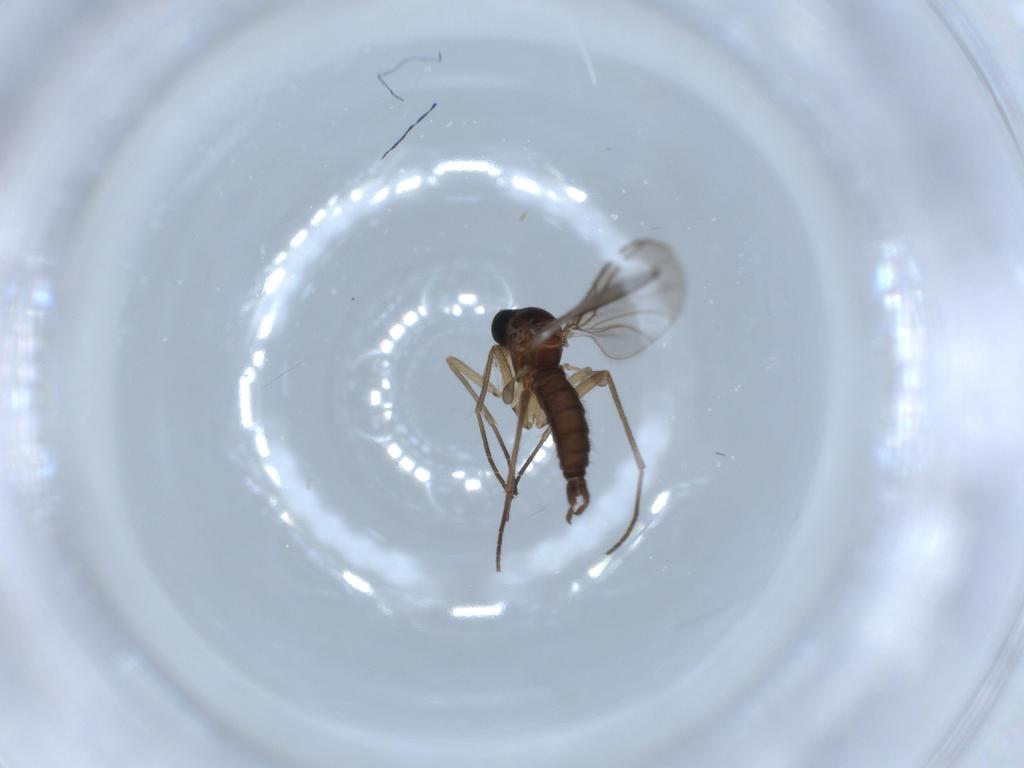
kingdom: Animalia
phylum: Arthropoda
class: Insecta
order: Diptera
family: Sciaridae
